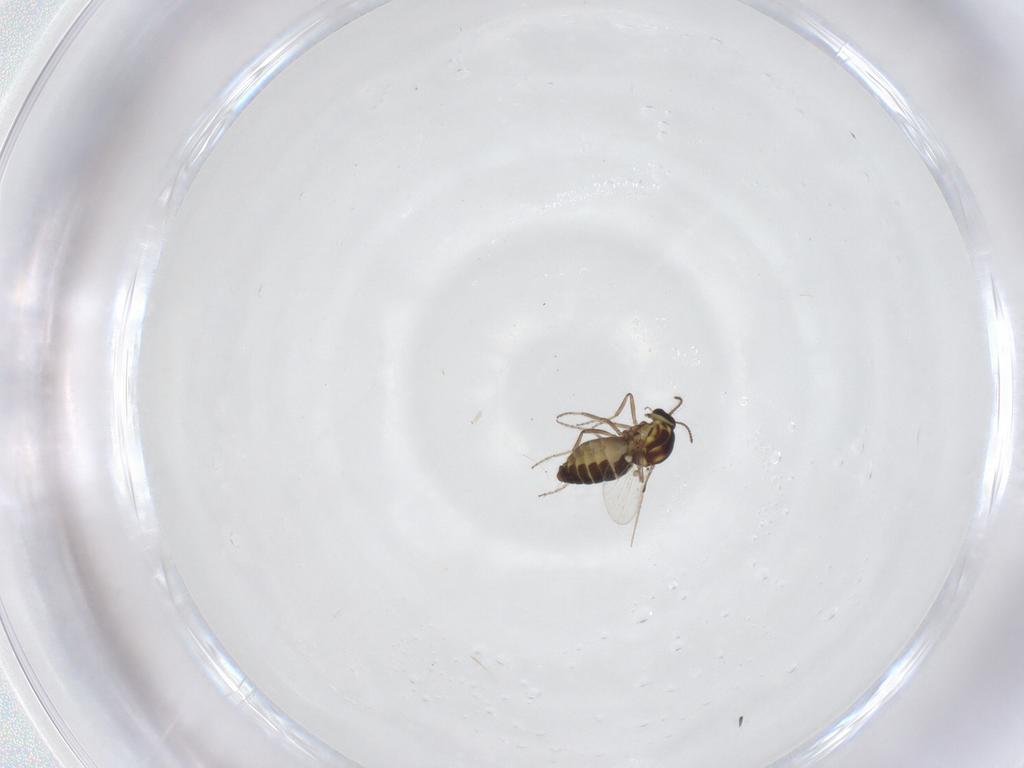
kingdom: Animalia
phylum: Arthropoda
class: Insecta
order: Diptera
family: Ceratopogonidae
